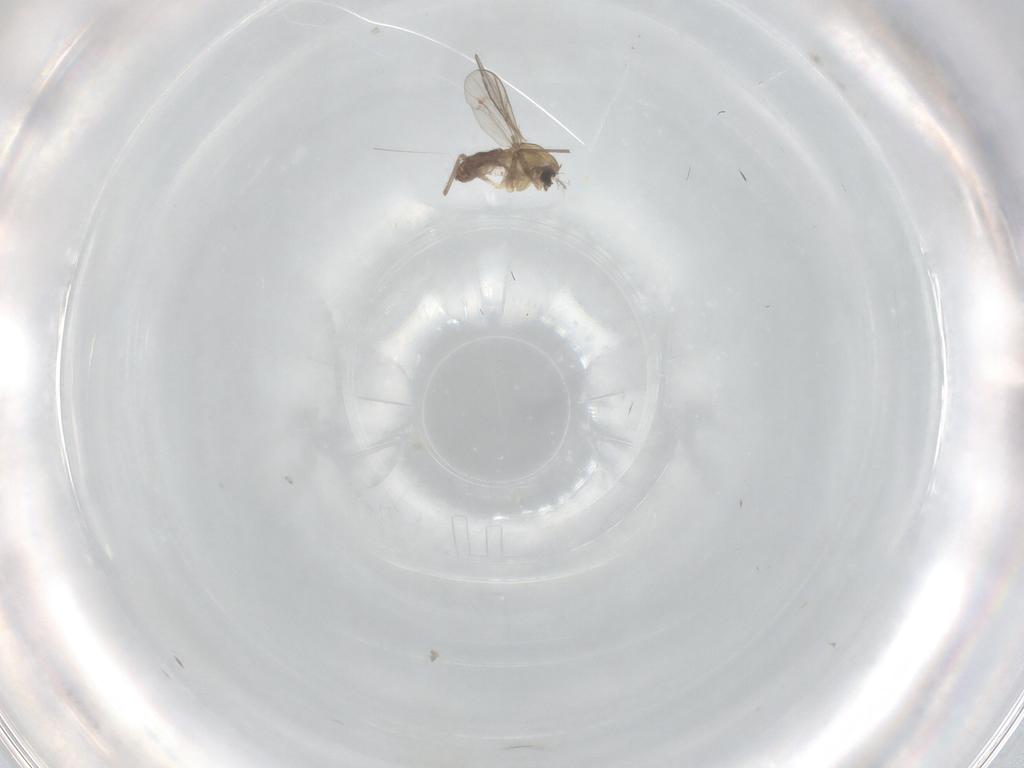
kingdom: Animalia
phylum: Arthropoda
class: Insecta
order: Diptera
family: Chironomidae
